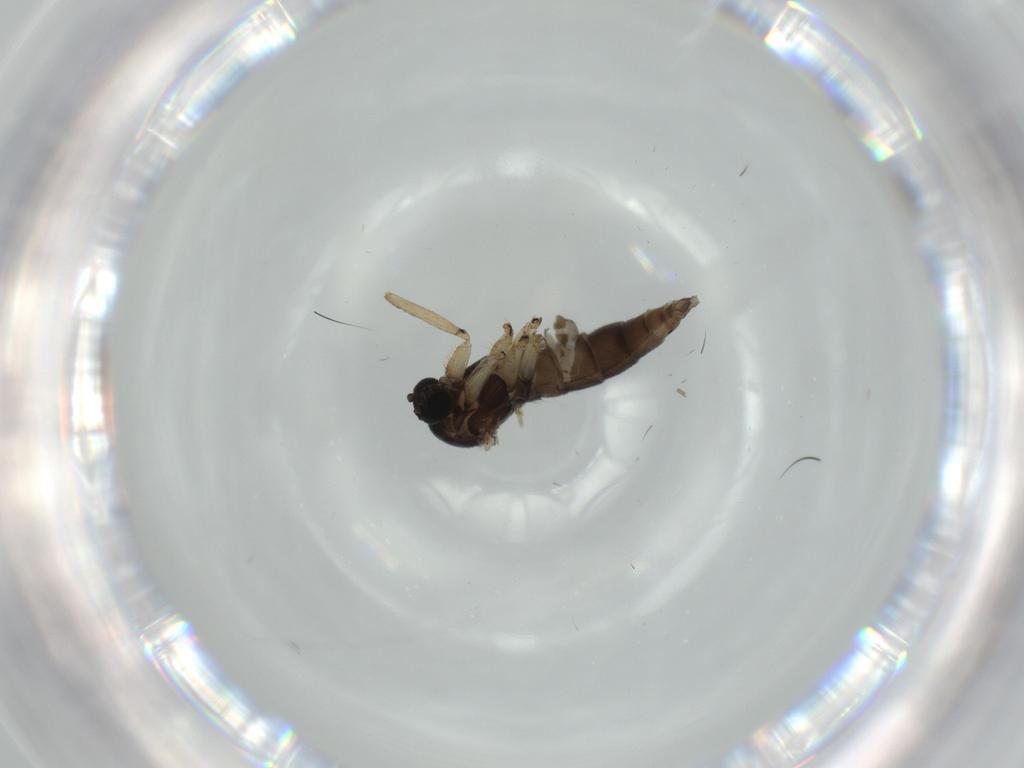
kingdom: Animalia
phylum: Arthropoda
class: Insecta
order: Diptera
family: Sciaridae
